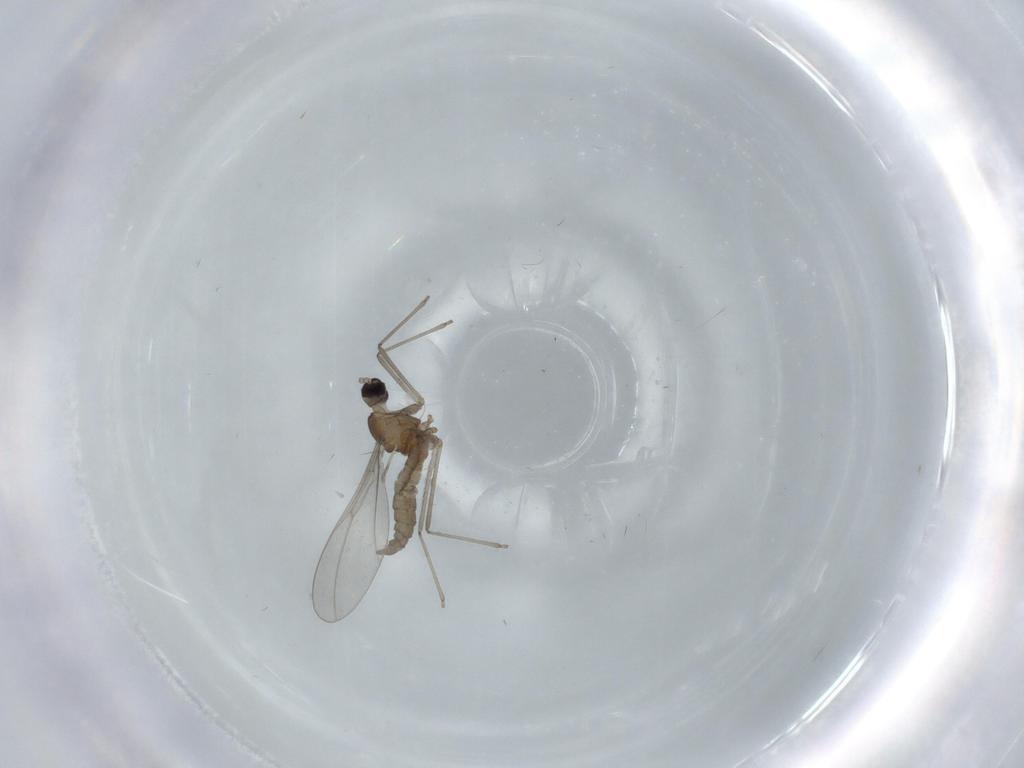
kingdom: Animalia
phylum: Arthropoda
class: Insecta
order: Diptera
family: Cecidomyiidae
